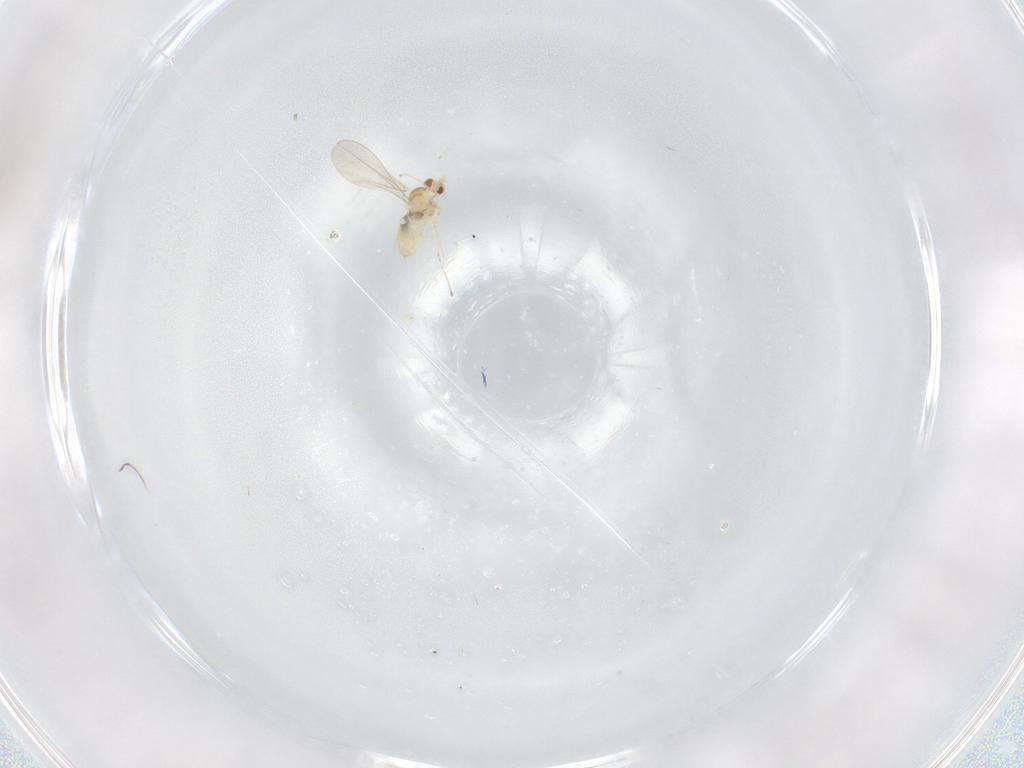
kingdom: Animalia
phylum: Arthropoda
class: Insecta
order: Diptera
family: Cecidomyiidae
